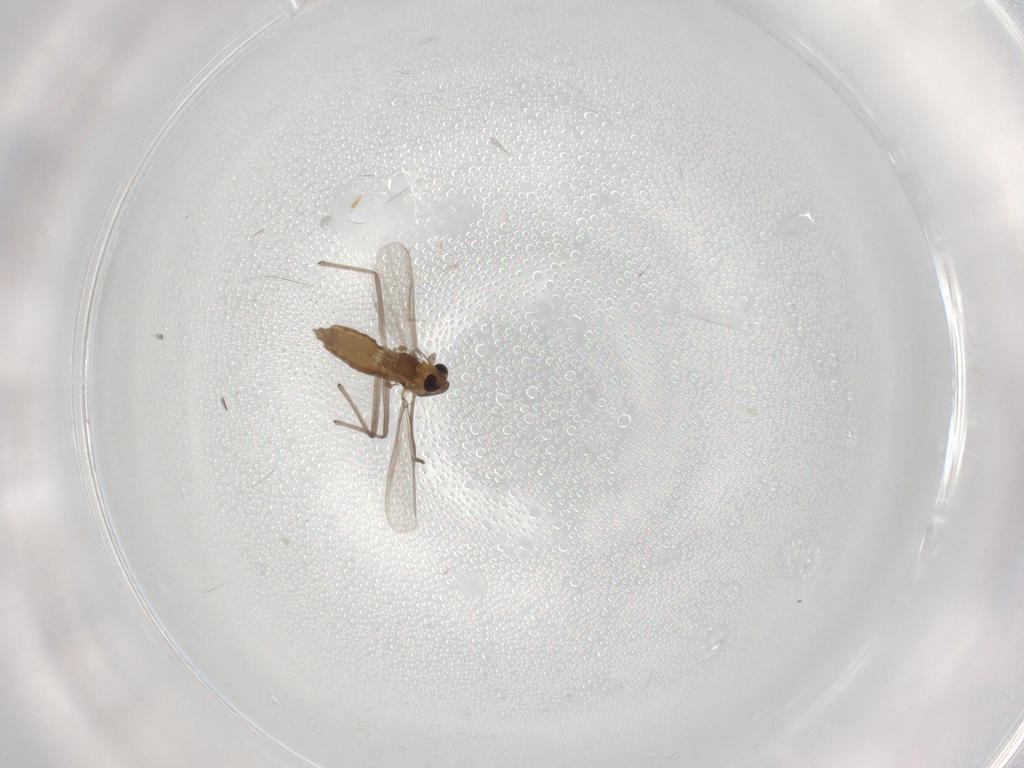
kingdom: Animalia
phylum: Arthropoda
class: Insecta
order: Diptera
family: Chironomidae
